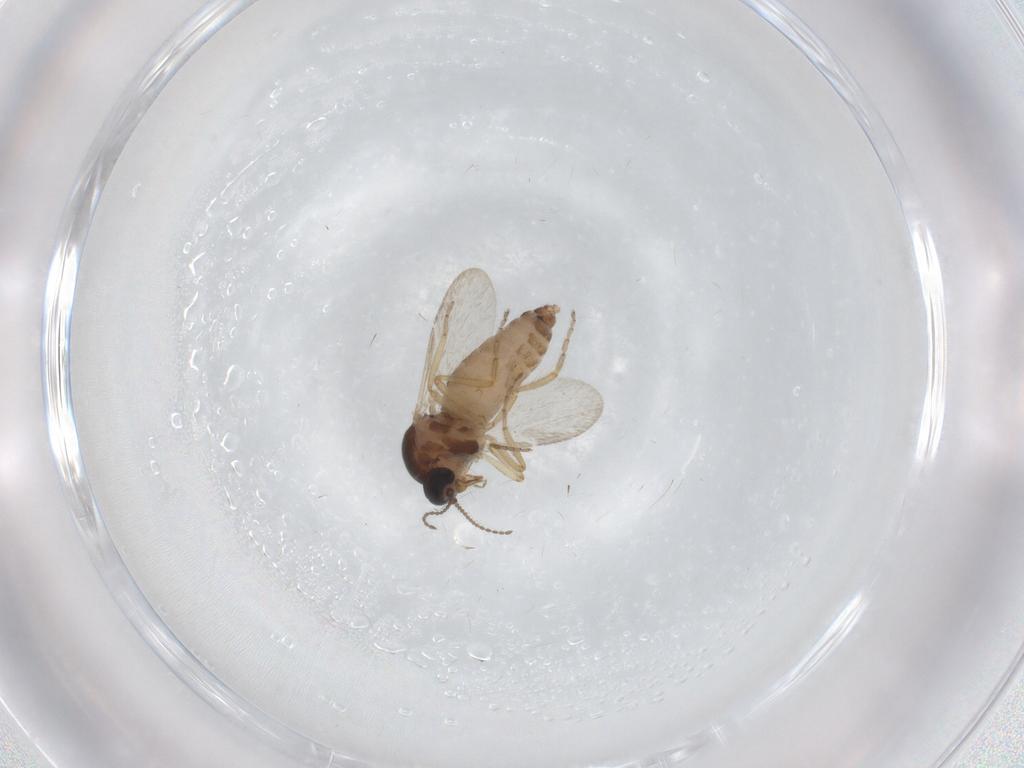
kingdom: Animalia
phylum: Arthropoda
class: Insecta
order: Diptera
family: Ceratopogonidae
